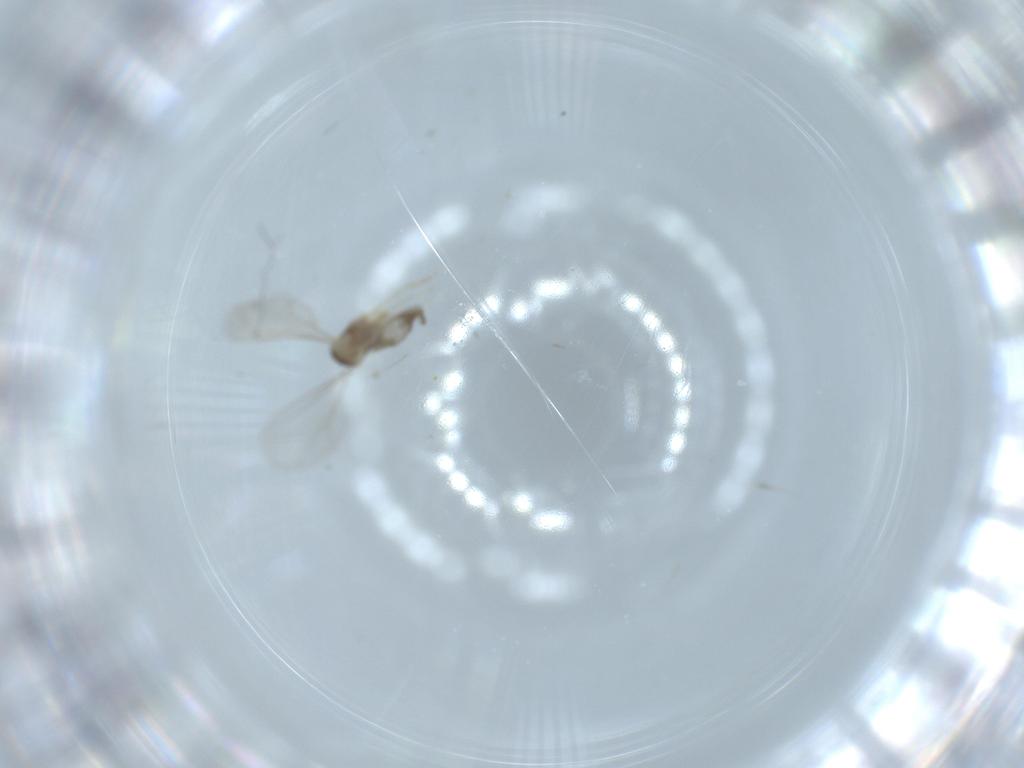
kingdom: Animalia
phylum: Arthropoda
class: Insecta
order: Diptera
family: Cecidomyiidae
